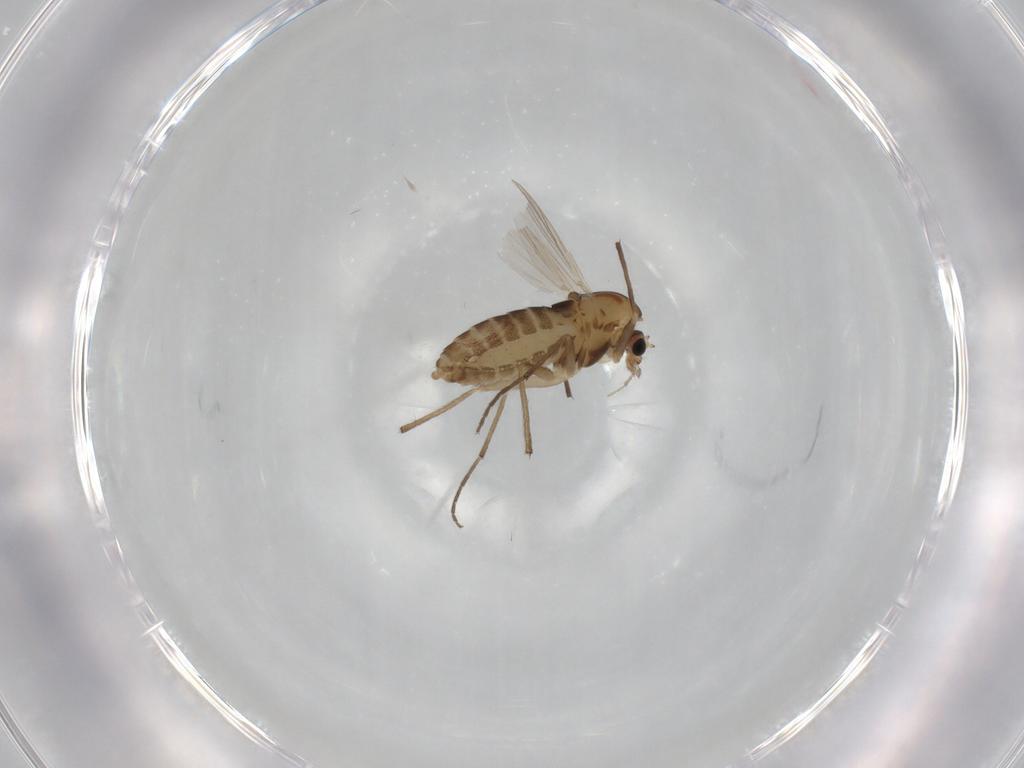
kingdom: Animalia
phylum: Arthropoda
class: Insecta
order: Diptera
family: Chironomidae
